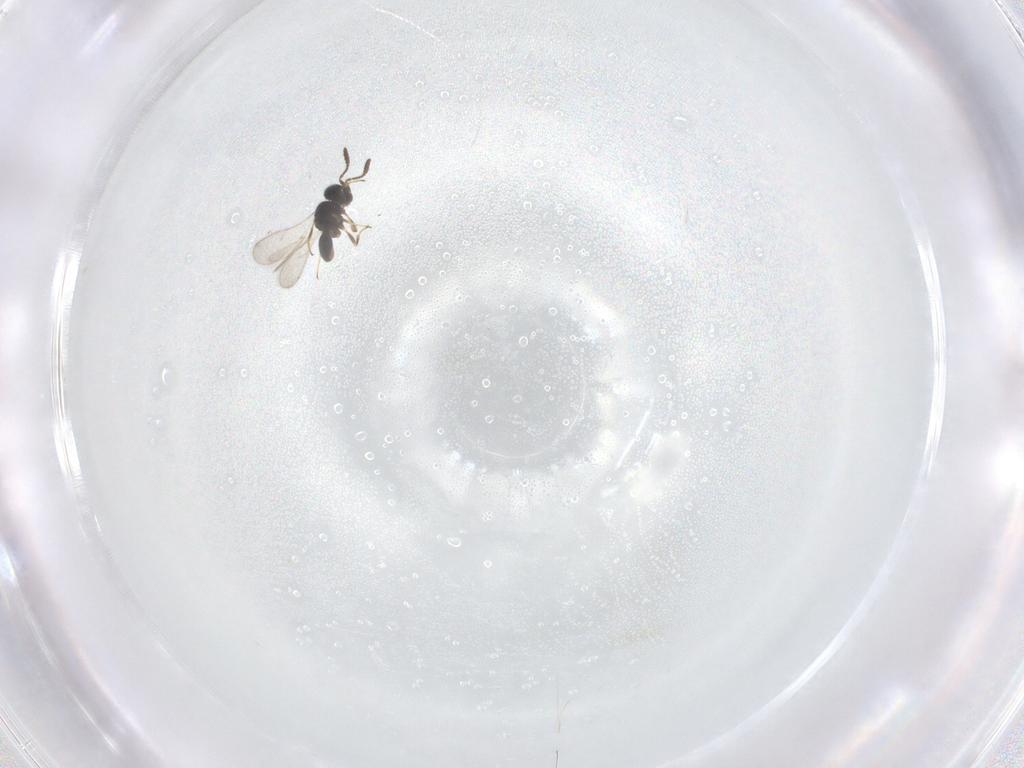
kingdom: Animalia
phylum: Arthropoda
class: Insecta
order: Hymenoptera
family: Scelionidae
